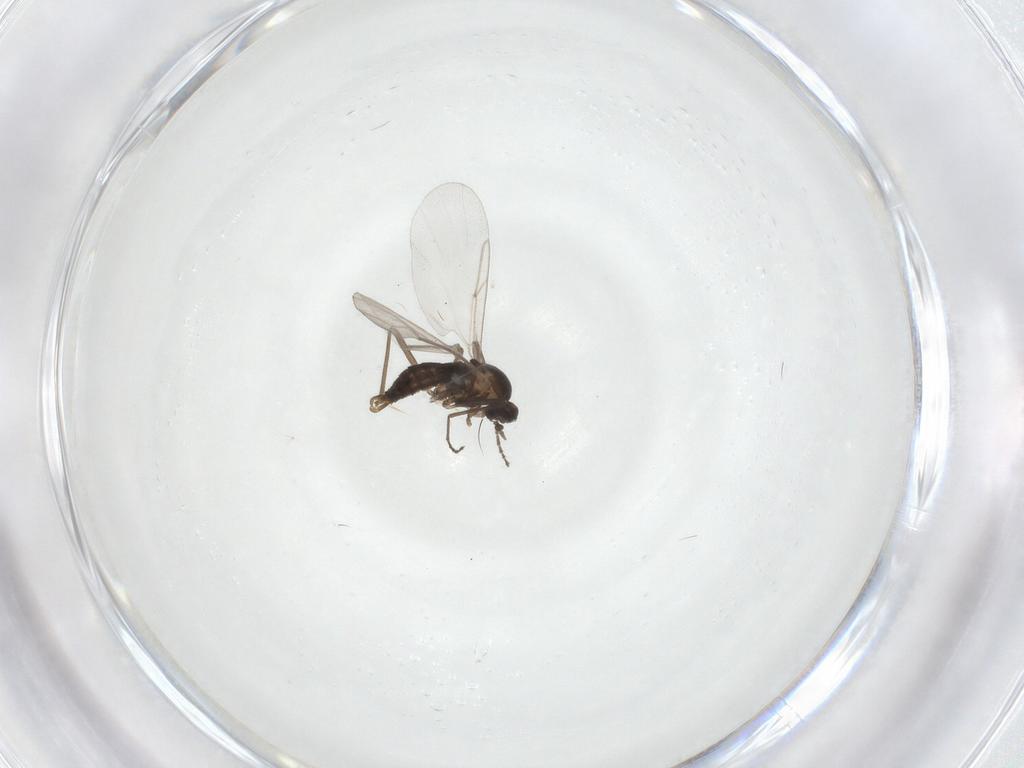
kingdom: Animalia
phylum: Arthropoda
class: Insecta
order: Diptera
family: Cecidomyiidae
